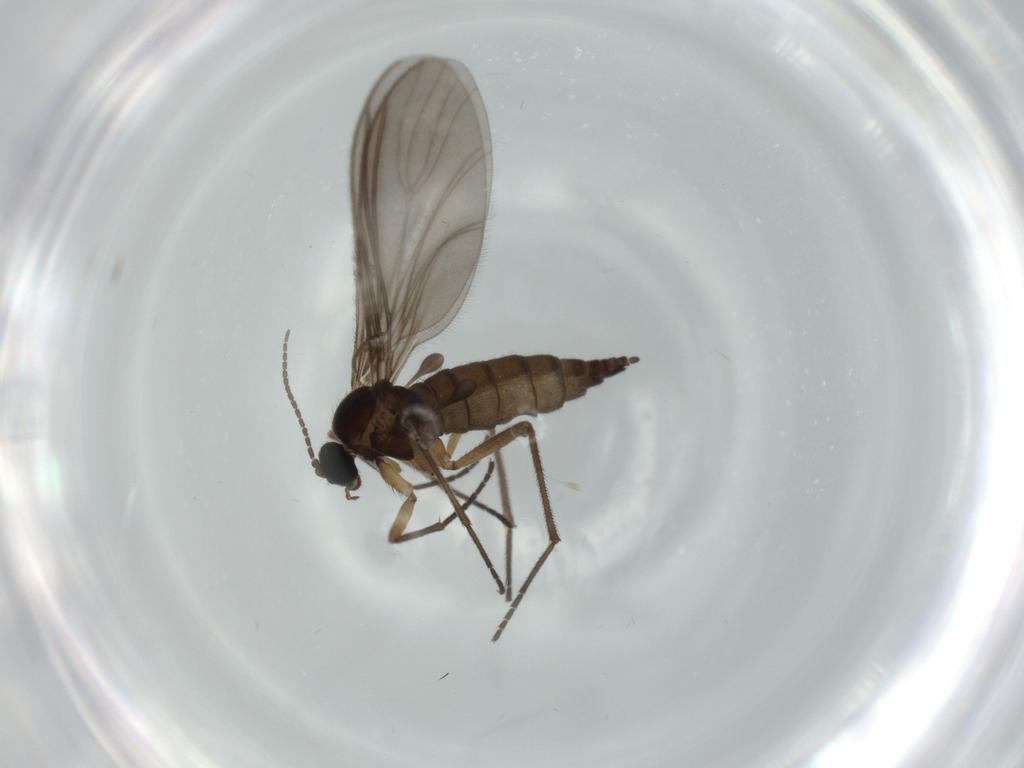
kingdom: Animalia
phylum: Arthropoda
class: Insecta
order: Diptera
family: Sciaridae
